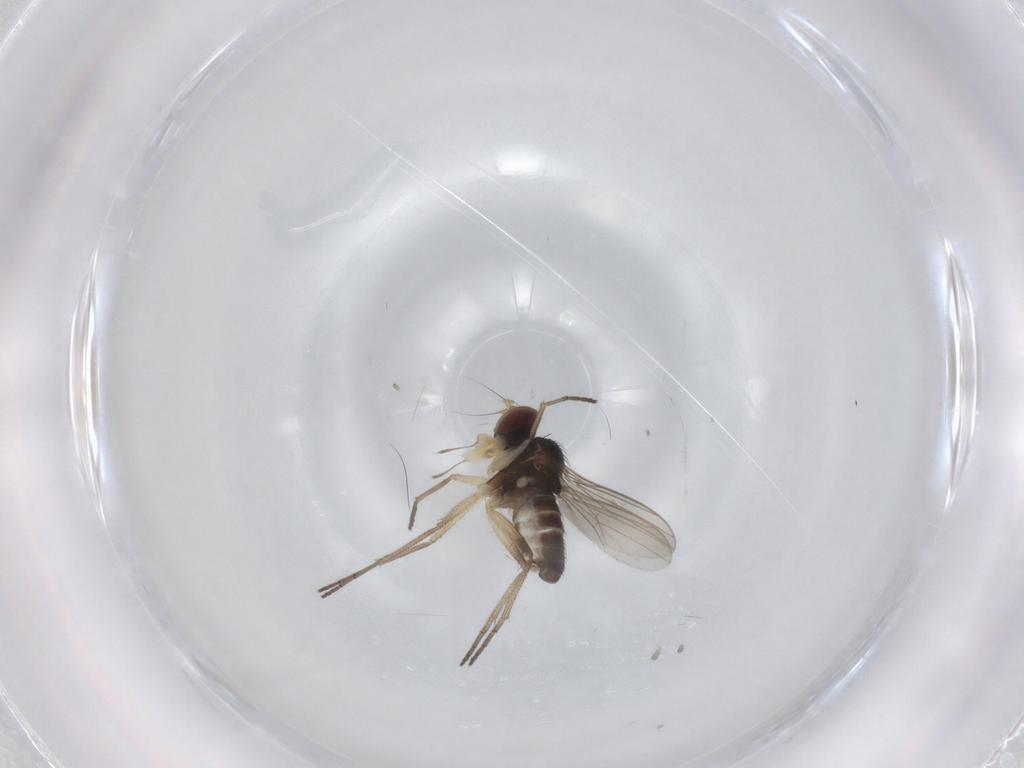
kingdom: Animalia
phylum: Arthropoda
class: Insecta
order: Diptera
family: Dolichopodidae
